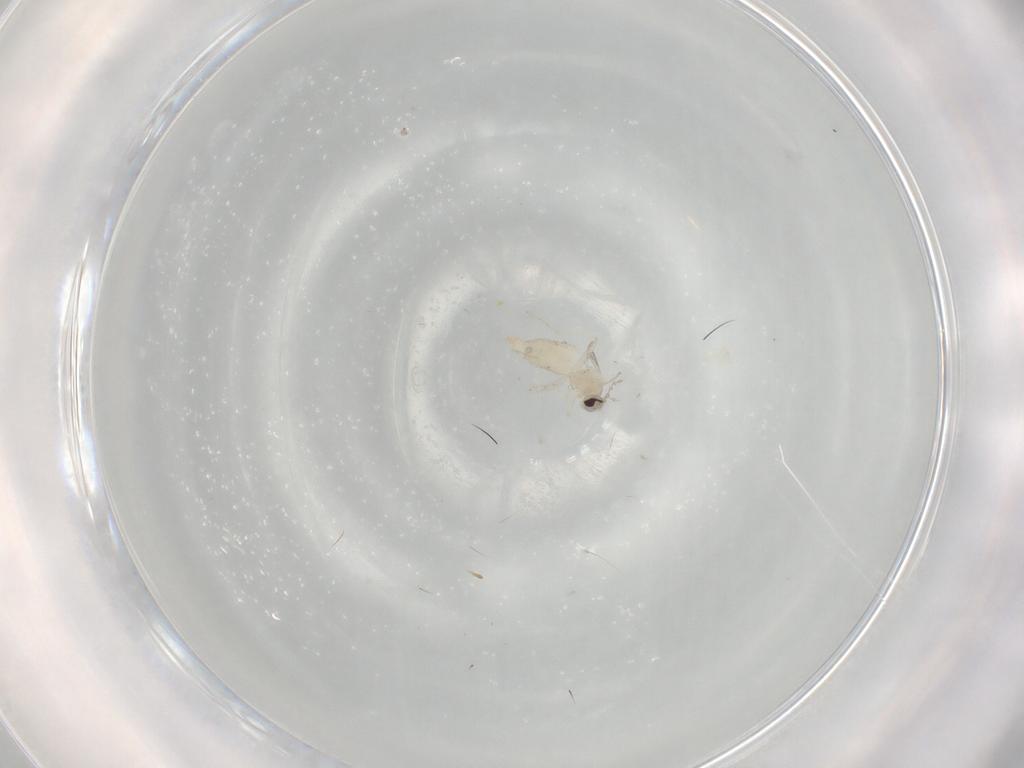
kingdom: Animalia
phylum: Arthropoda
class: Insecta
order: Diptera
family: Cecidomyiidae
